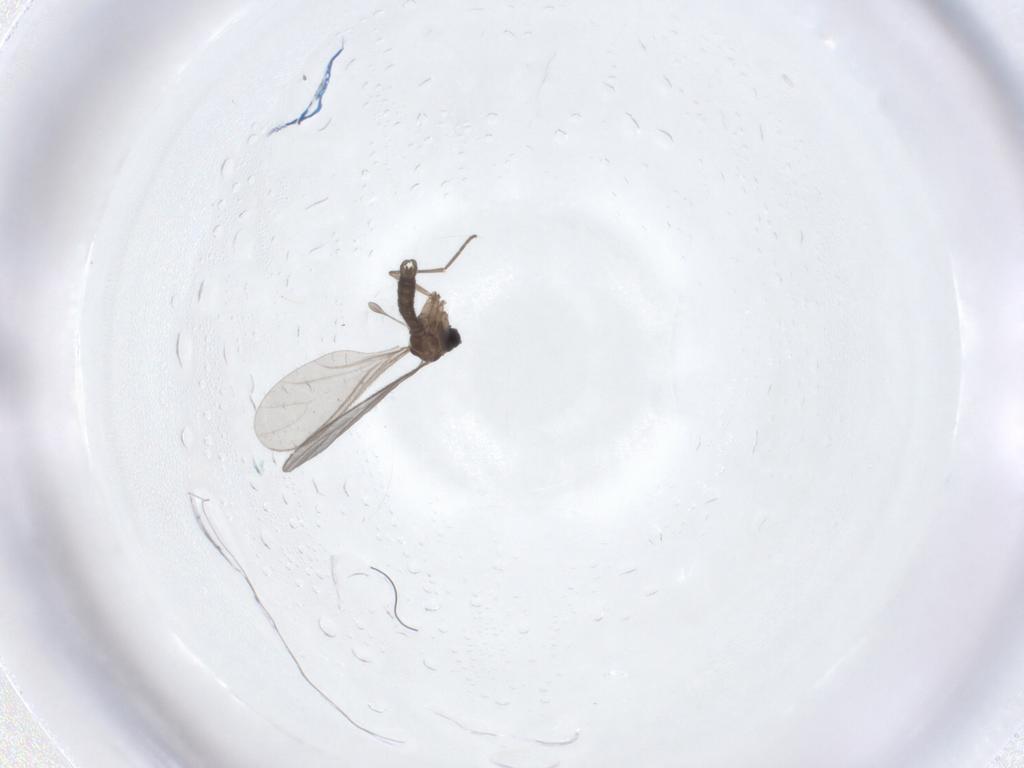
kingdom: Animalia
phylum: Arthropoda
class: Insecta
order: Diptera
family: Sciaridae
